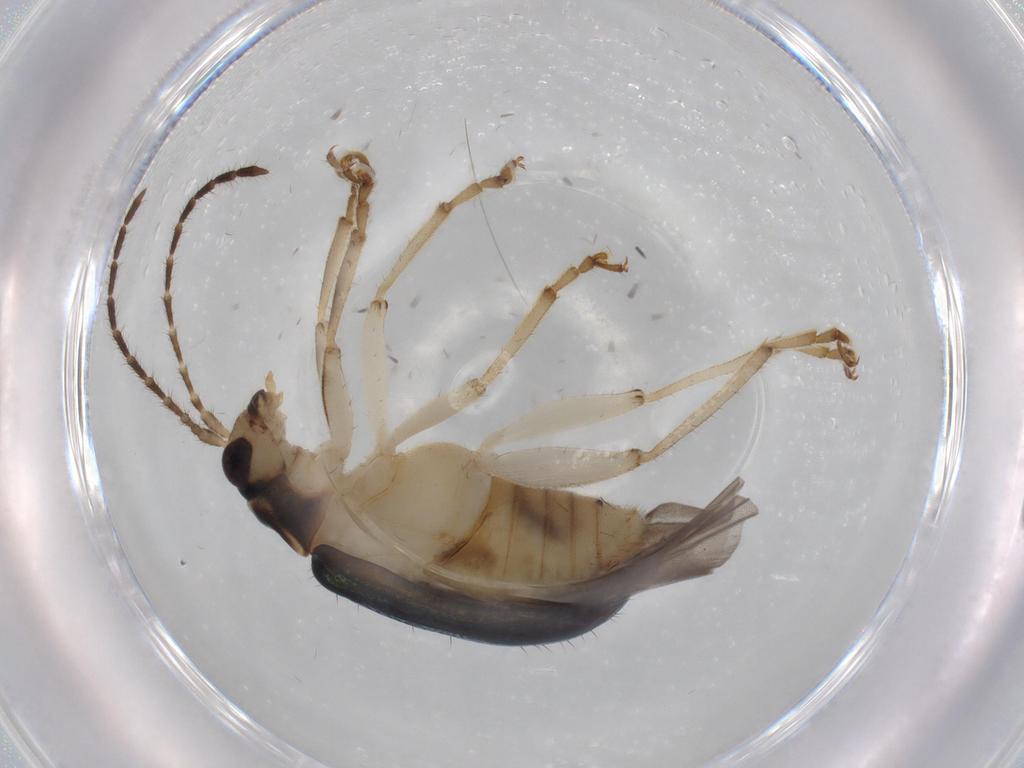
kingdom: Animalia
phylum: Arthropoda
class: Insecta
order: Coleoptera
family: Chrysomelidae
